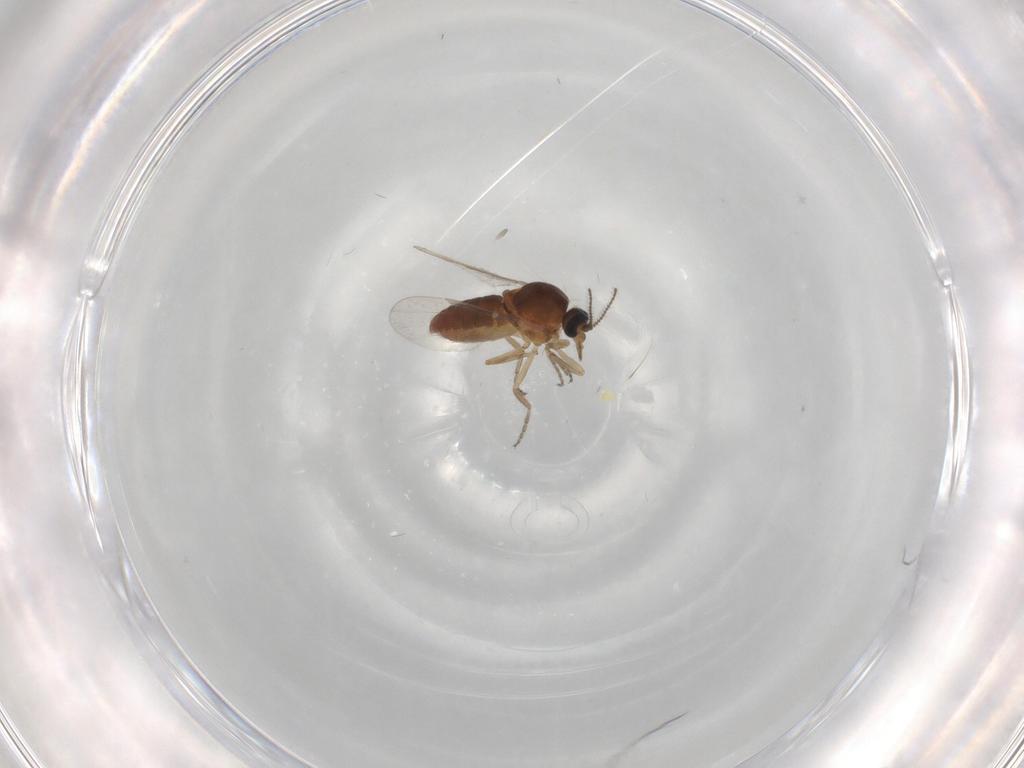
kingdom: Animalia
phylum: Arthropoda
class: Insecta
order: Diptera
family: Ceratopogonidae
